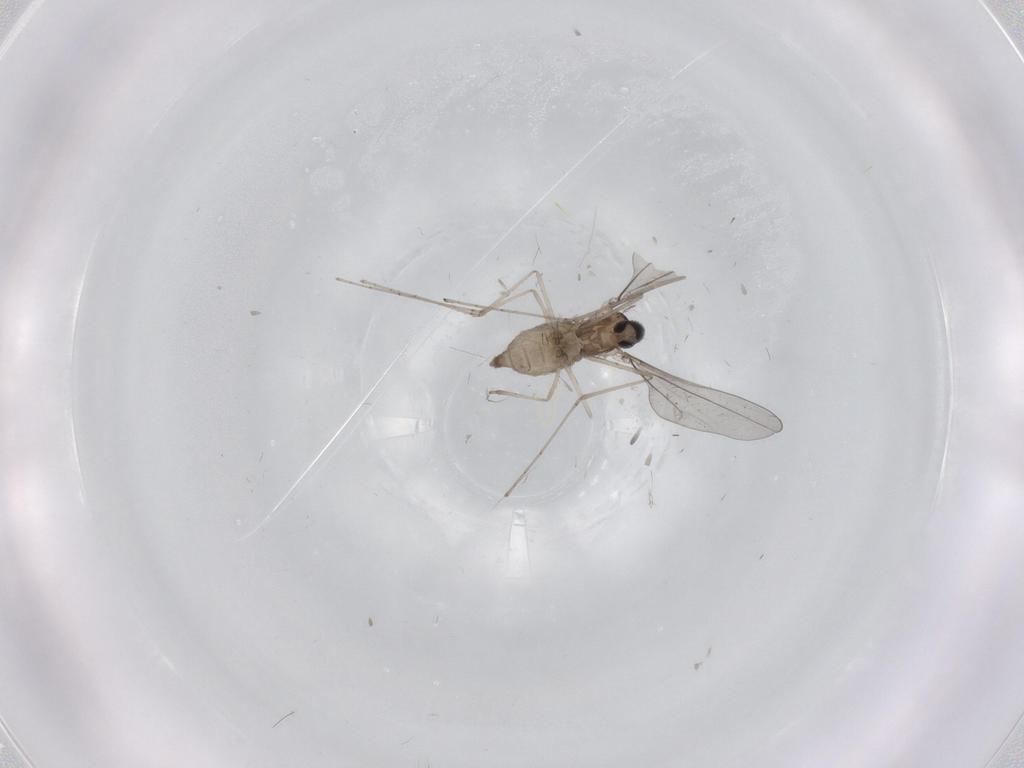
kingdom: Animalia
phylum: Arthropoda
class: Insecta
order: Diptera
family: Cecidomyiidae
